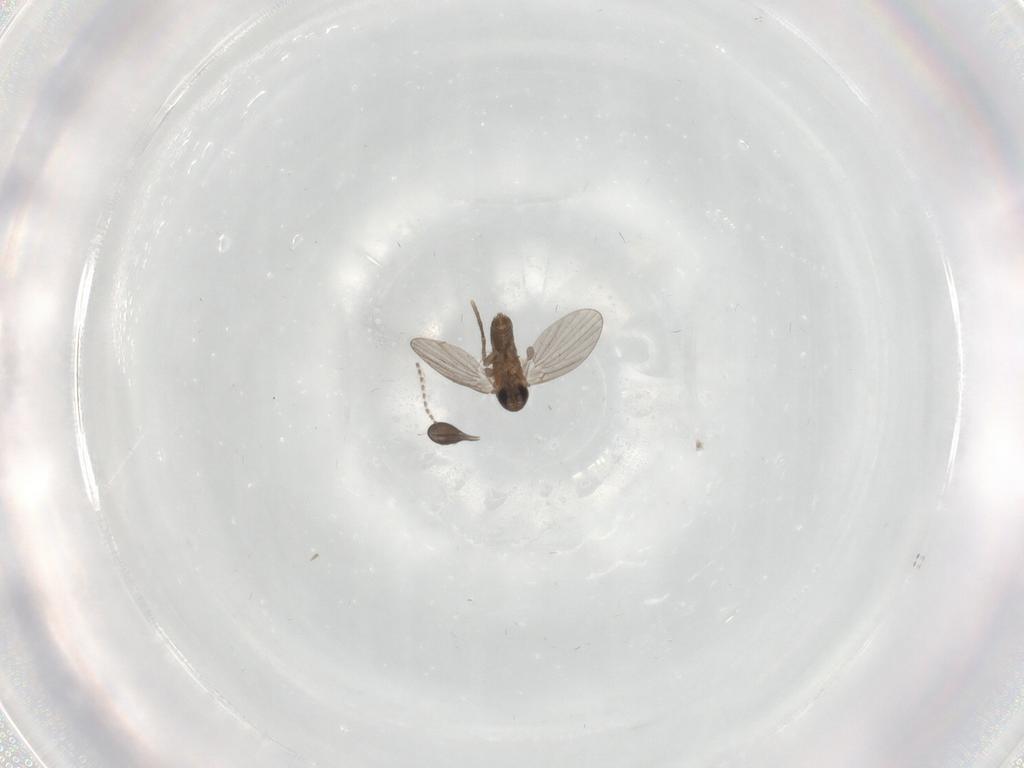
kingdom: Animalia
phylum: Arthropoda
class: Insecta
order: Diptera
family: Sciaridae
